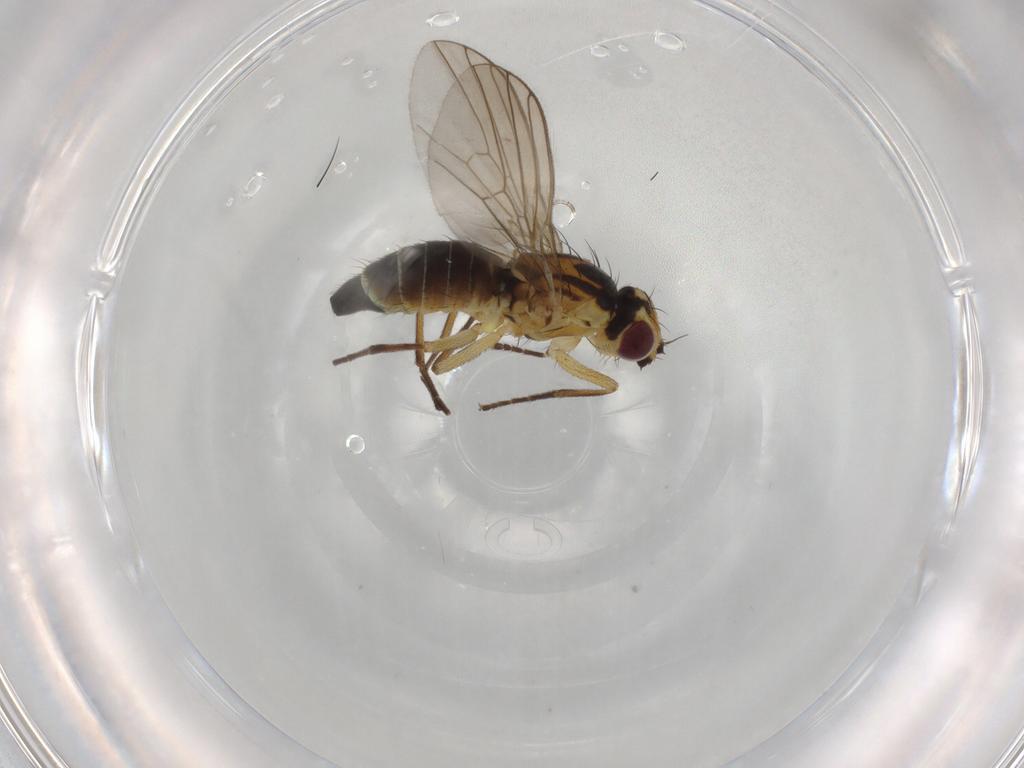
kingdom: Animalia
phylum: Arthropoda
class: Insecta
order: Diptera
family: Agromyzidae
